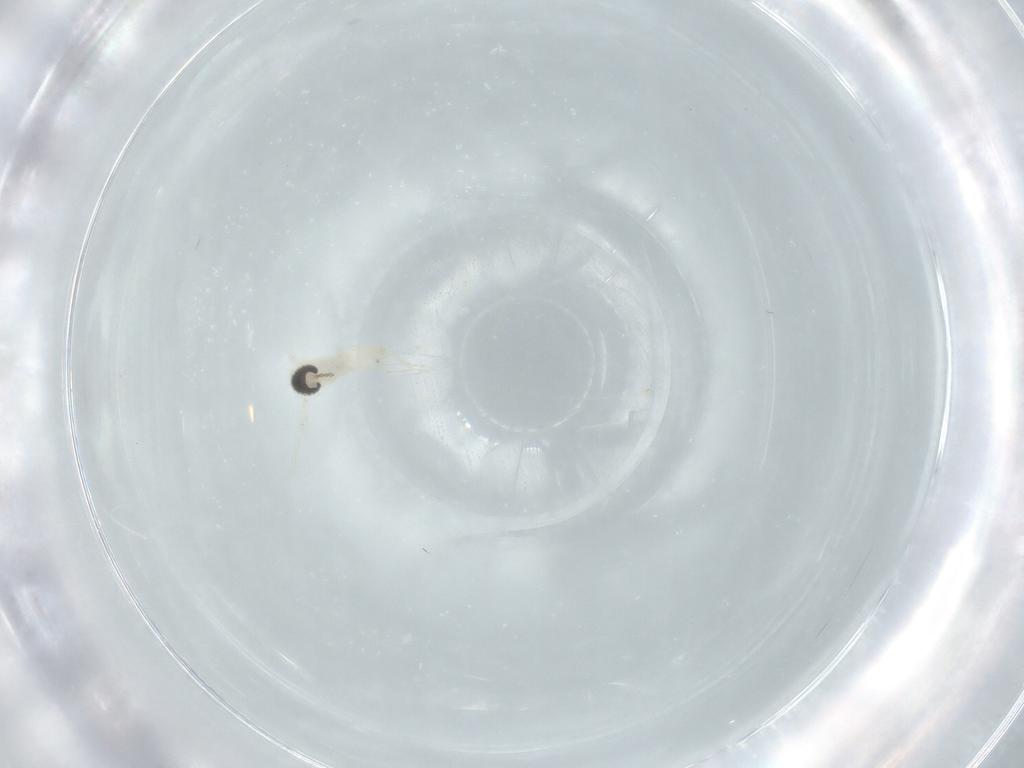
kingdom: Animalia
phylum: Arthropoda
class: Insecta
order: Diptera
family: Cecidomyiidae
